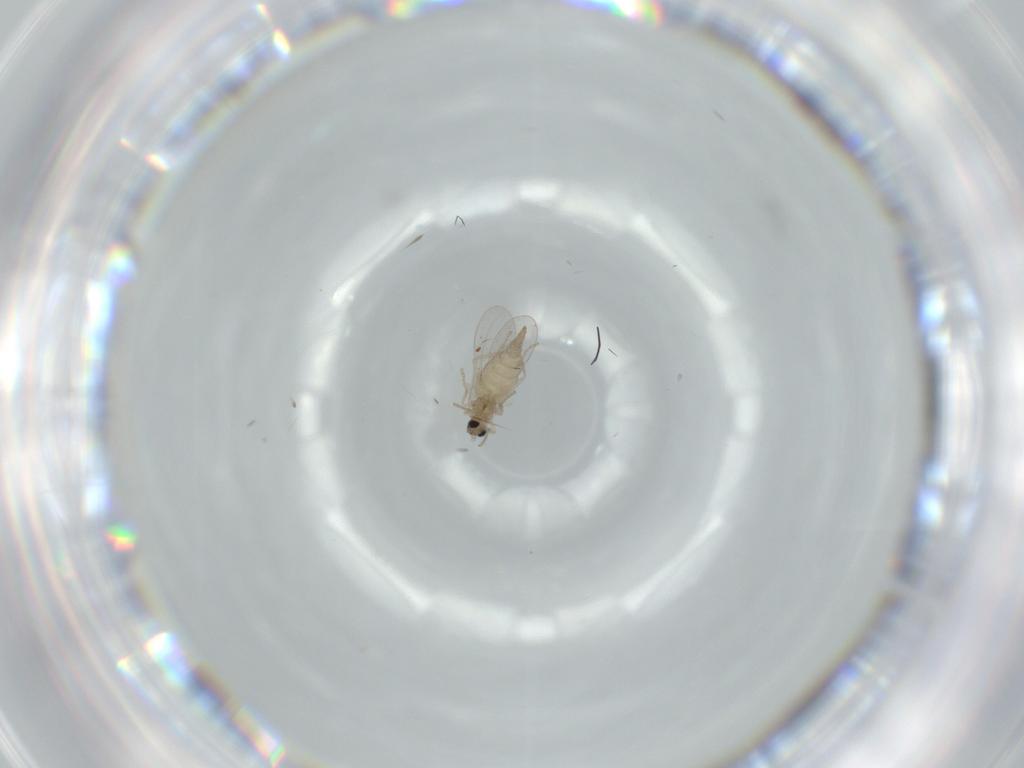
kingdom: Animalia
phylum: Arthropoda
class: Insecta
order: Diptera
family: Cecidomyiidae
